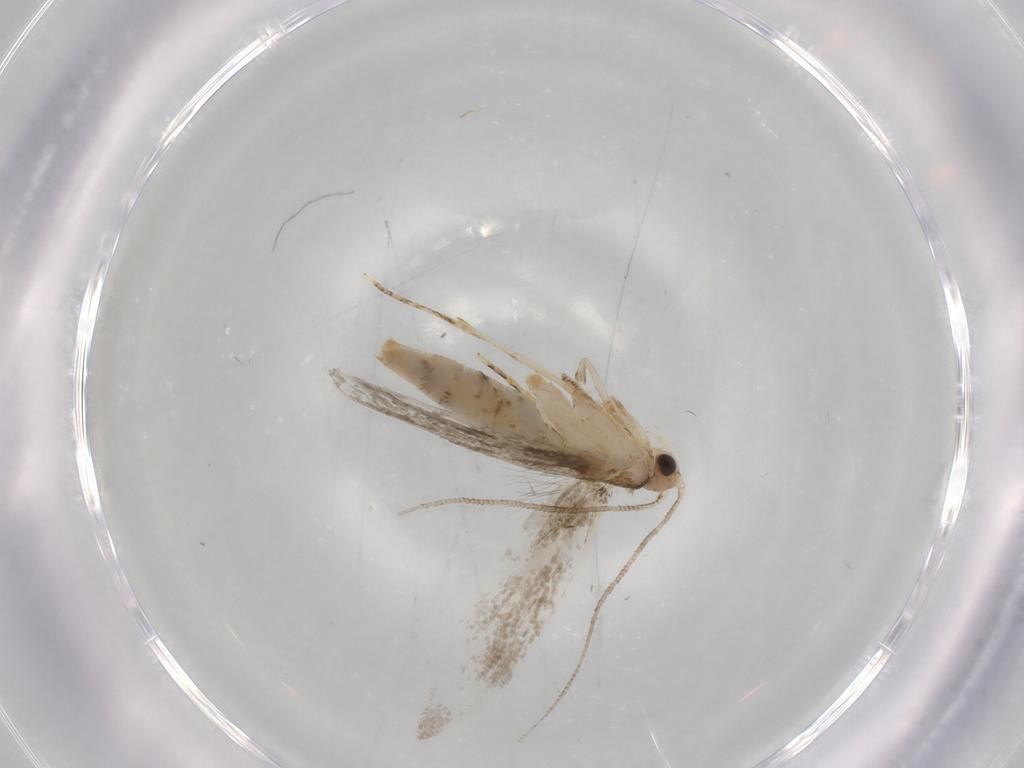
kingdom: Animalia
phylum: Arthropoda
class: Insecta
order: Lepidoptera
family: Meessiidae
